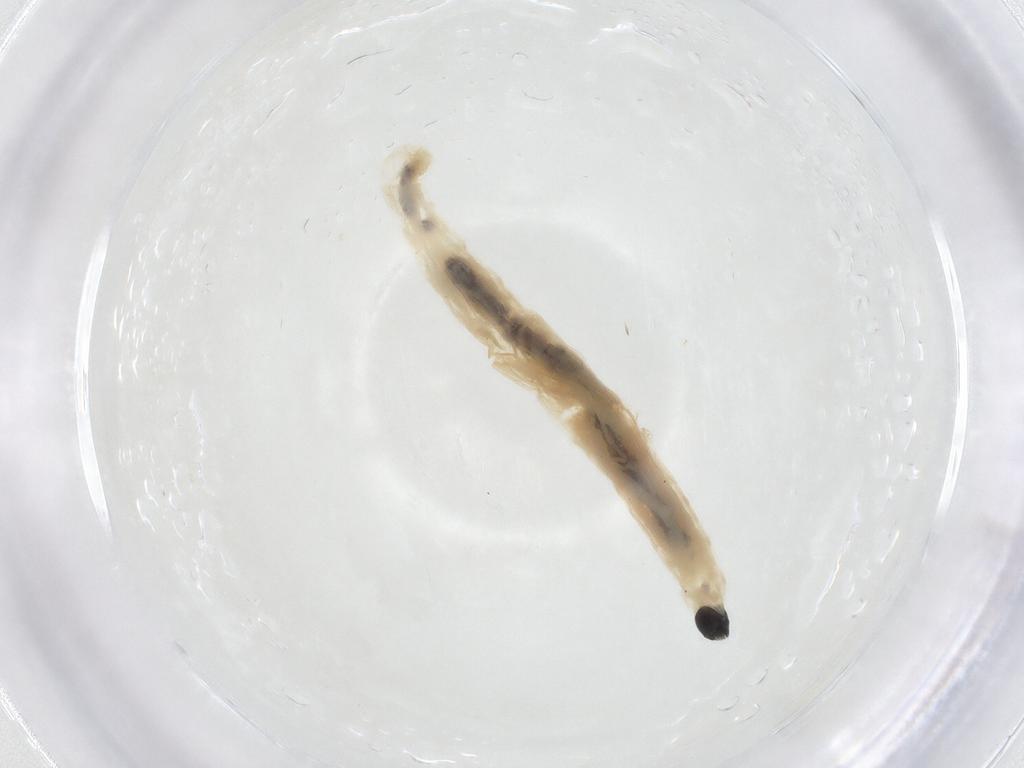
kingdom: Animalia
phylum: Arthropoda
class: Insecta
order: Diptera
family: Sciaridae
